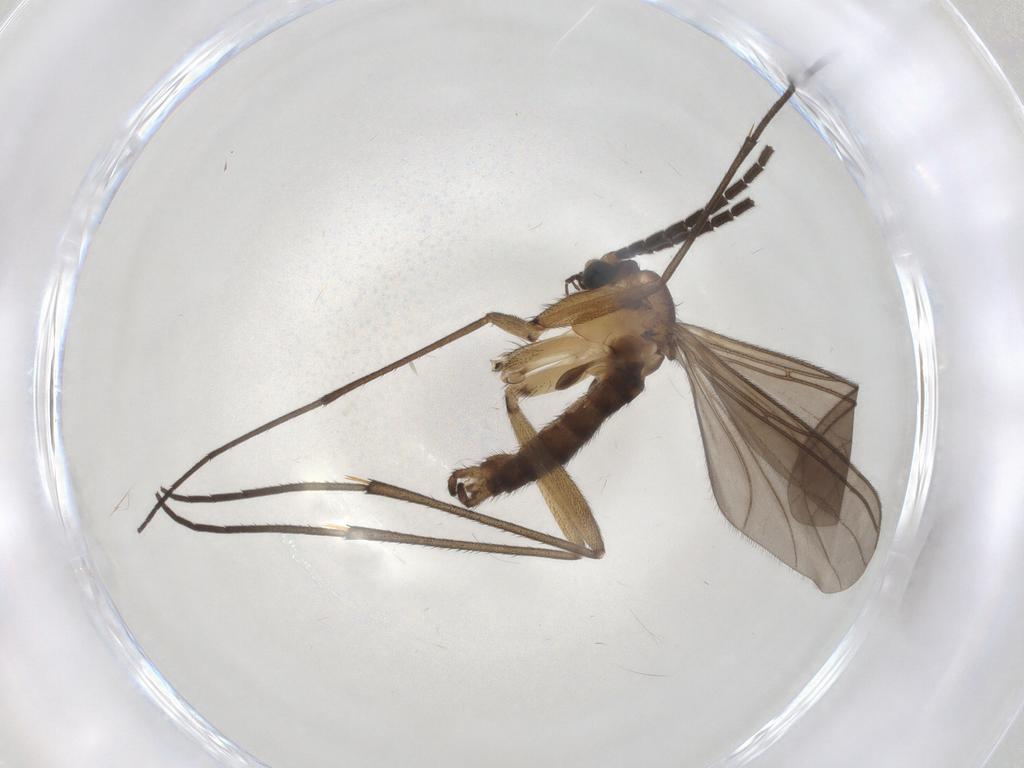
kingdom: Animalia
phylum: Arthropoda
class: Insecta
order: Diptera
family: Sciaridae
